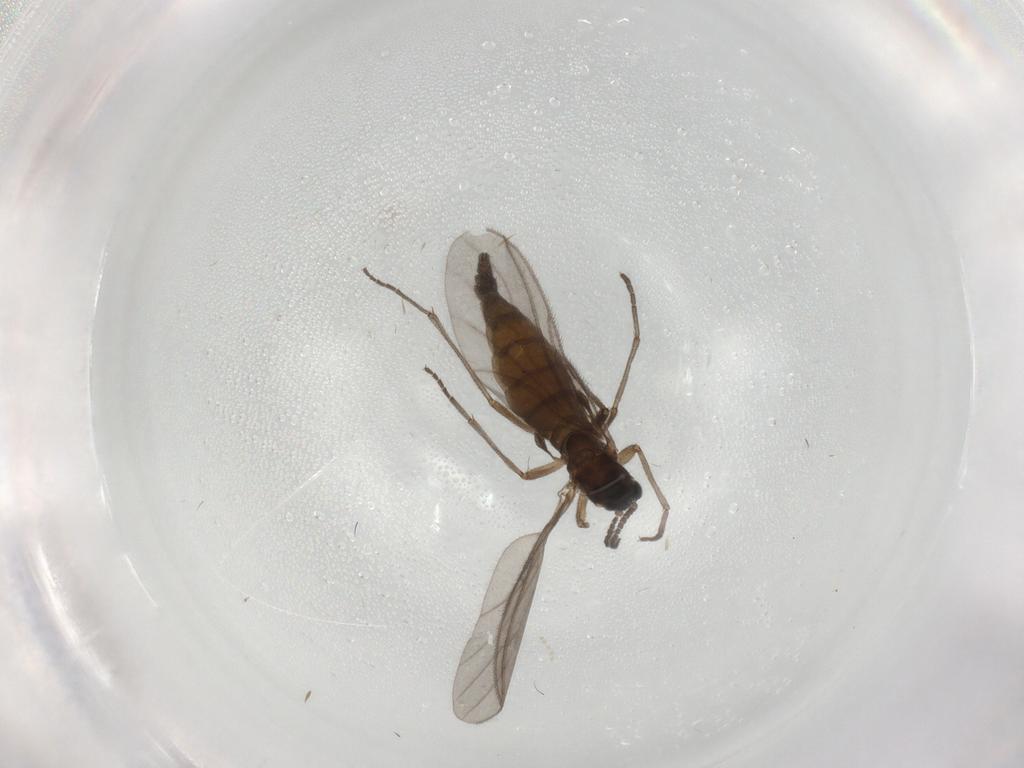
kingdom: Animalia
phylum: Arthropoda
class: Insecta
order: Diptera
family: Sciaridae
